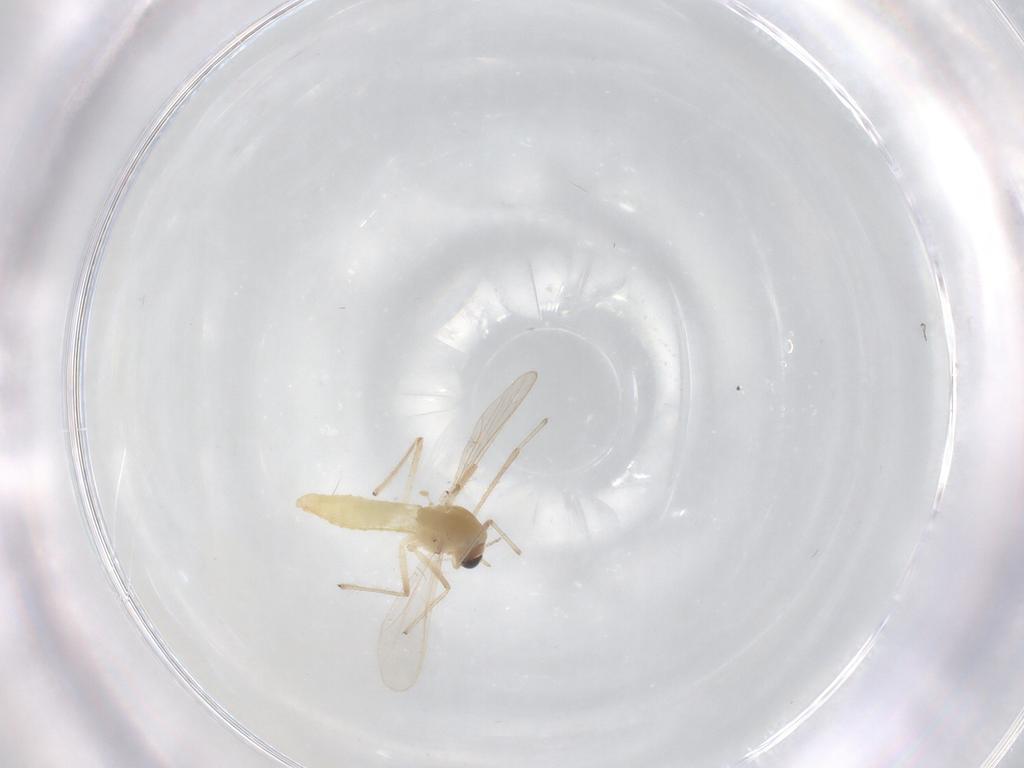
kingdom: Animalia
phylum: Arthropoda
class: Insecta
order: Diptera
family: Chironomidae
